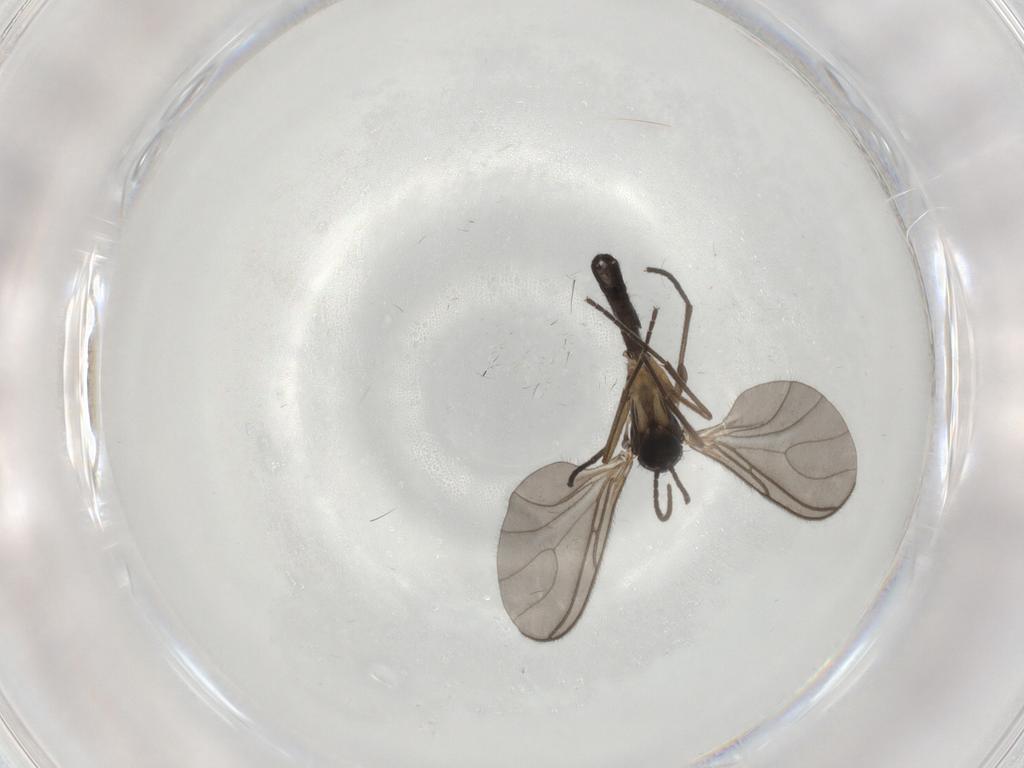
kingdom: Animalia
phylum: Arthropoda
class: Insecta
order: Diptera
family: Sciaridae
